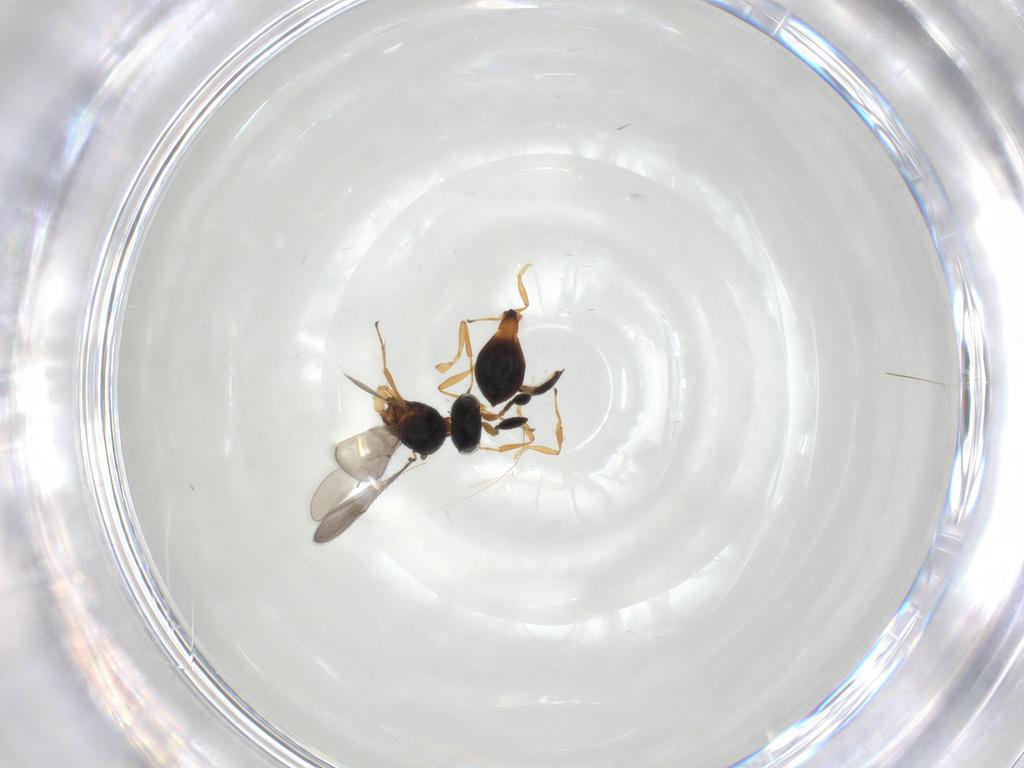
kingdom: Animalia
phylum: Arthropoda
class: Insecta
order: Hymenoptera
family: Scelionidae
